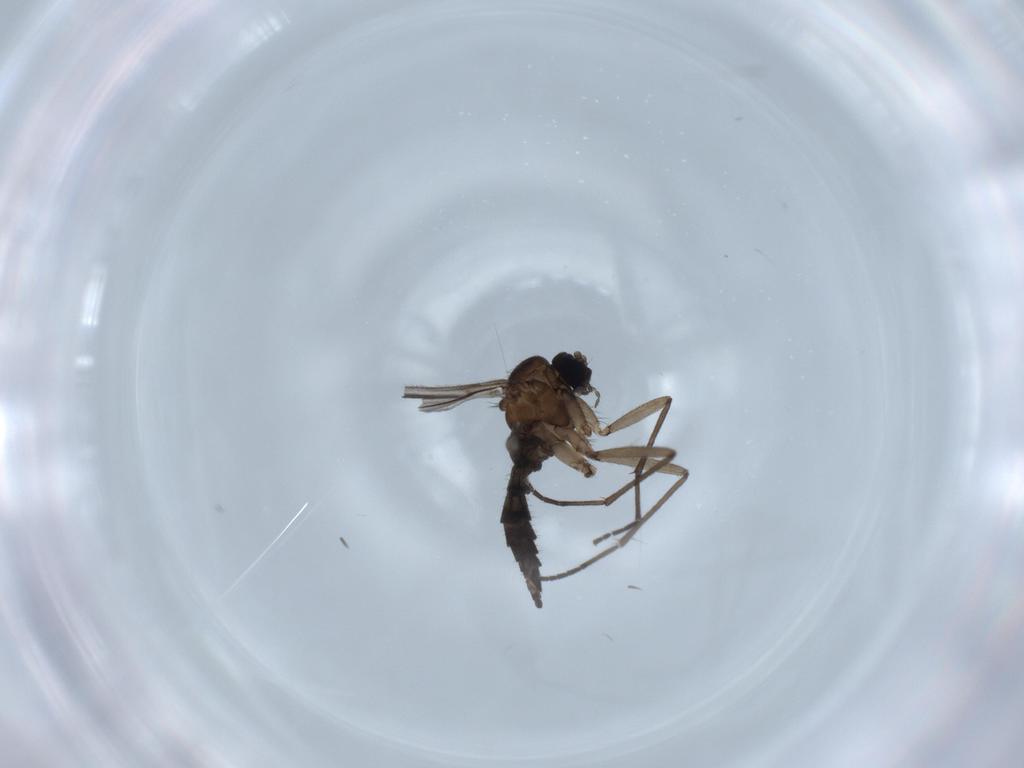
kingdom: Animalia
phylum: Arthropoda
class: Insecta
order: Diptera
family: Sciaridae
